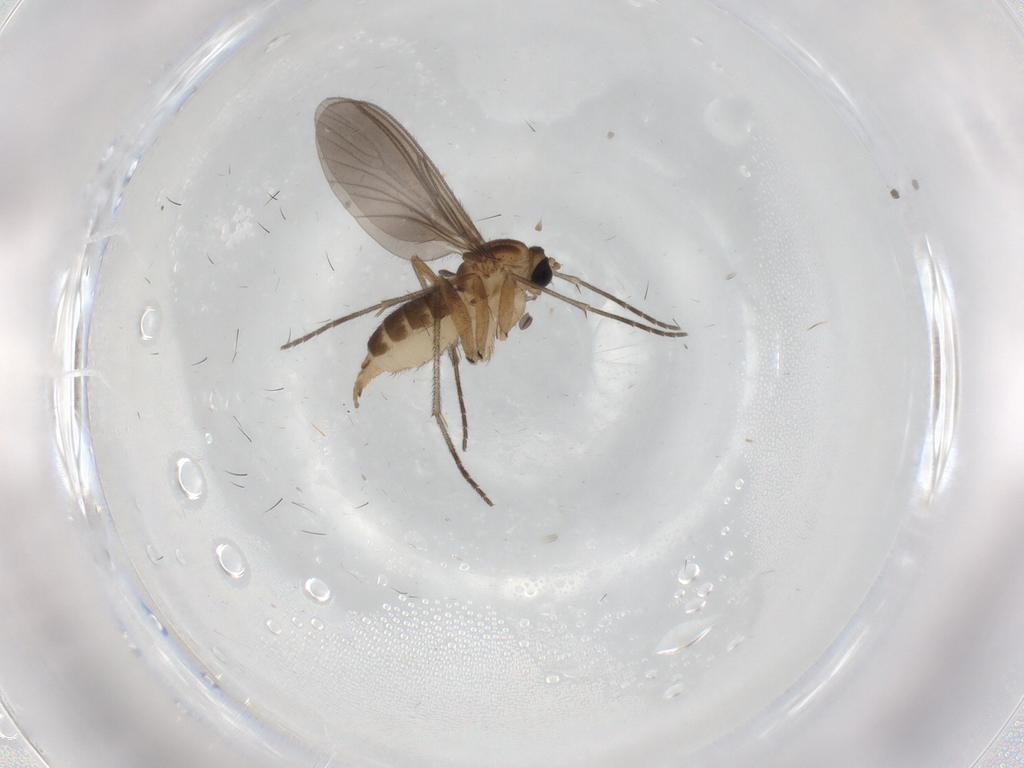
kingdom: Animalia
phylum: Arthropoda
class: Insecta
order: Diptera
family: Sciaridae
